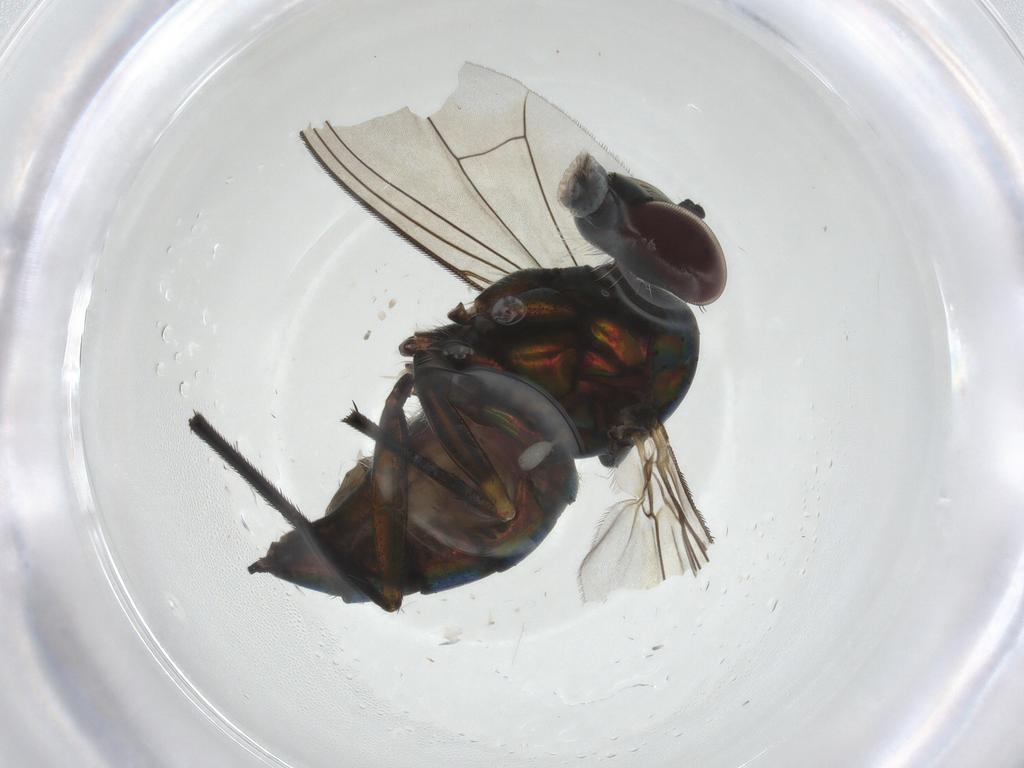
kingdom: Animalia
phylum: Arthropoda
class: Insecta
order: Diptera
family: Dolichopodidae
